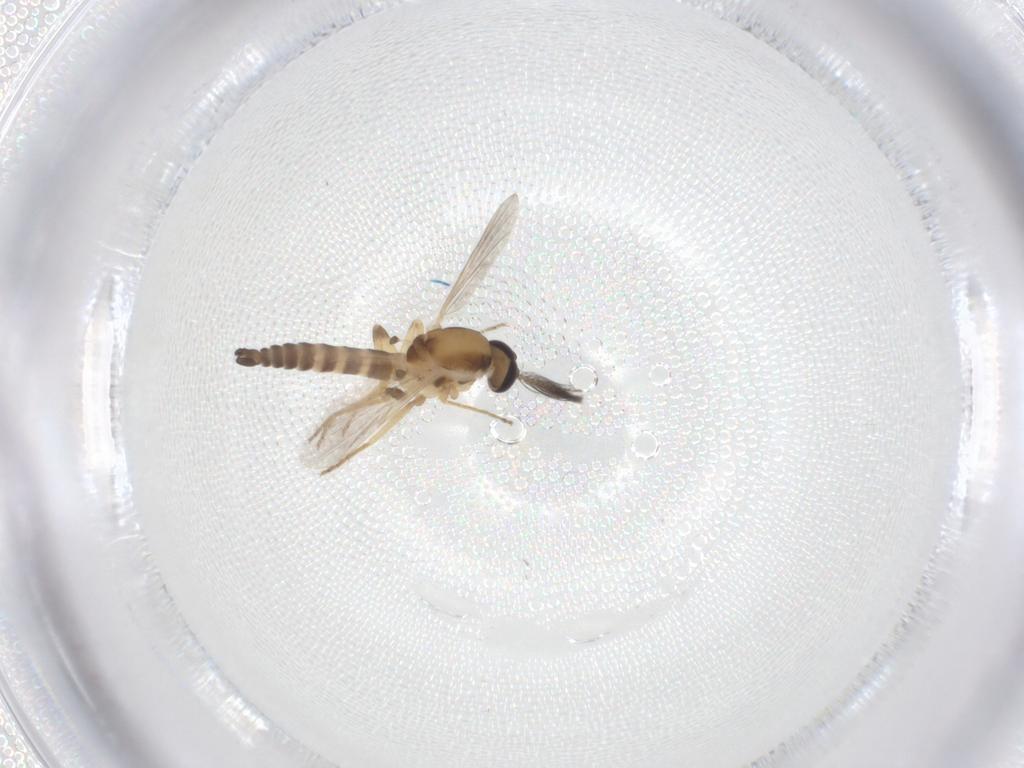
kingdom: Animalia
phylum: Arthropoda
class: Insecta
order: Diptera
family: Ceratopogonidae
